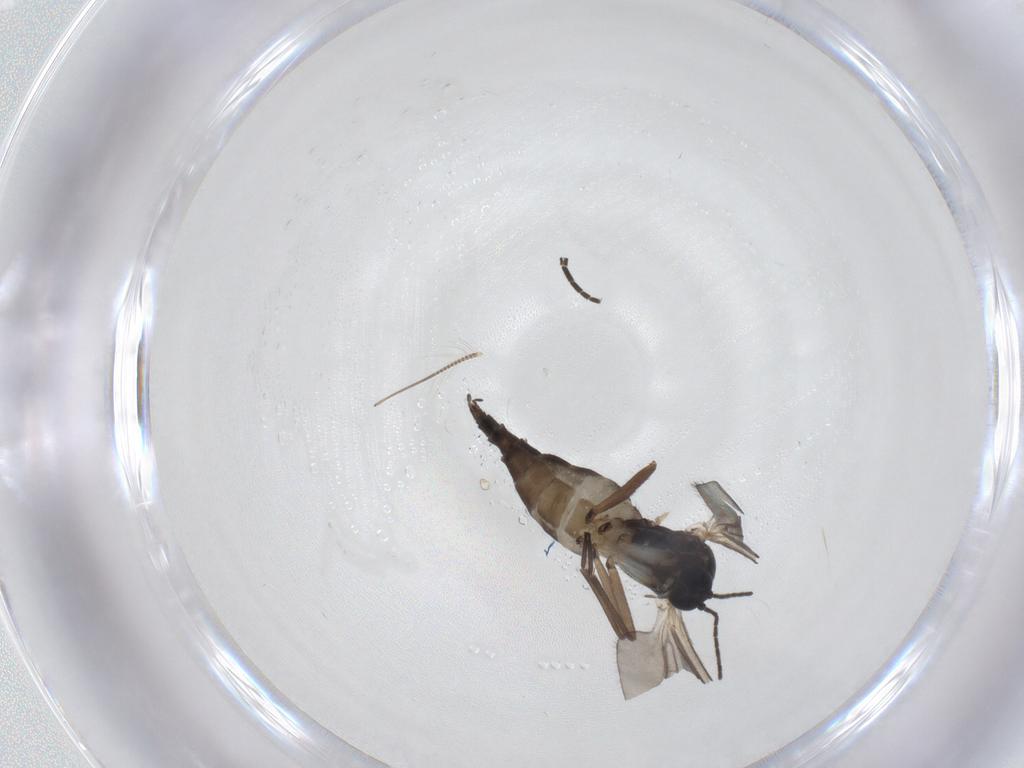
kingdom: Animalia
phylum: Arthropoda
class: Insecta
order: Diptera
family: Sciaridae
